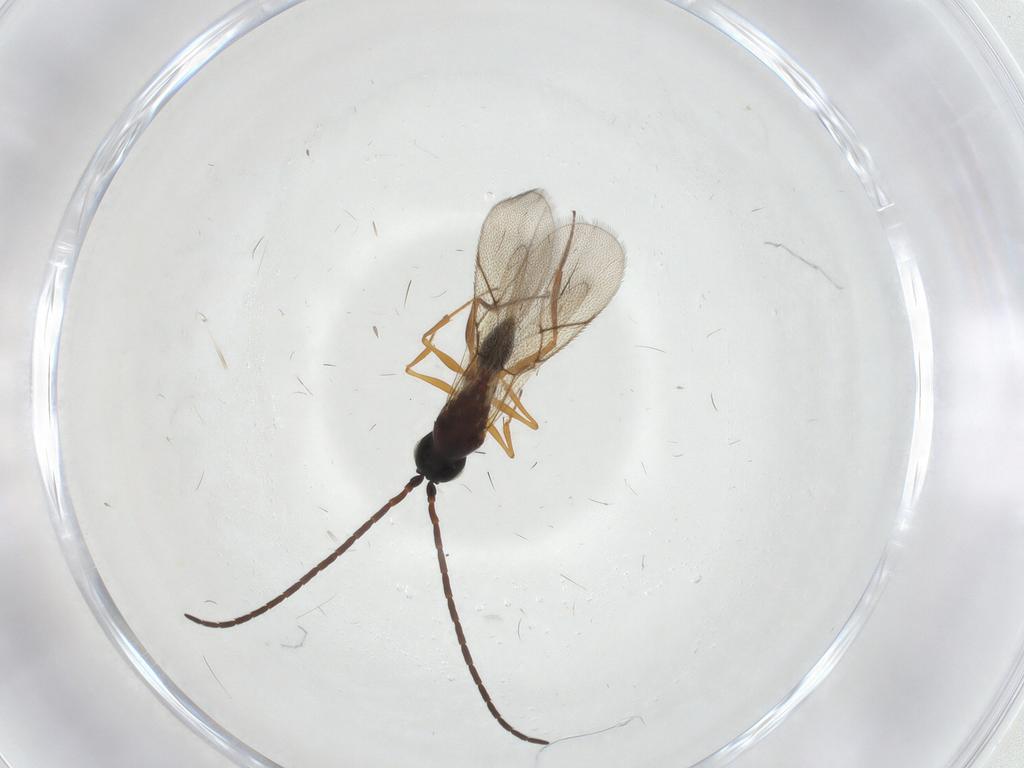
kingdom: Animalia
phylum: Arthropoda
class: Insecta
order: Hymenoptera
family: Figitidae
